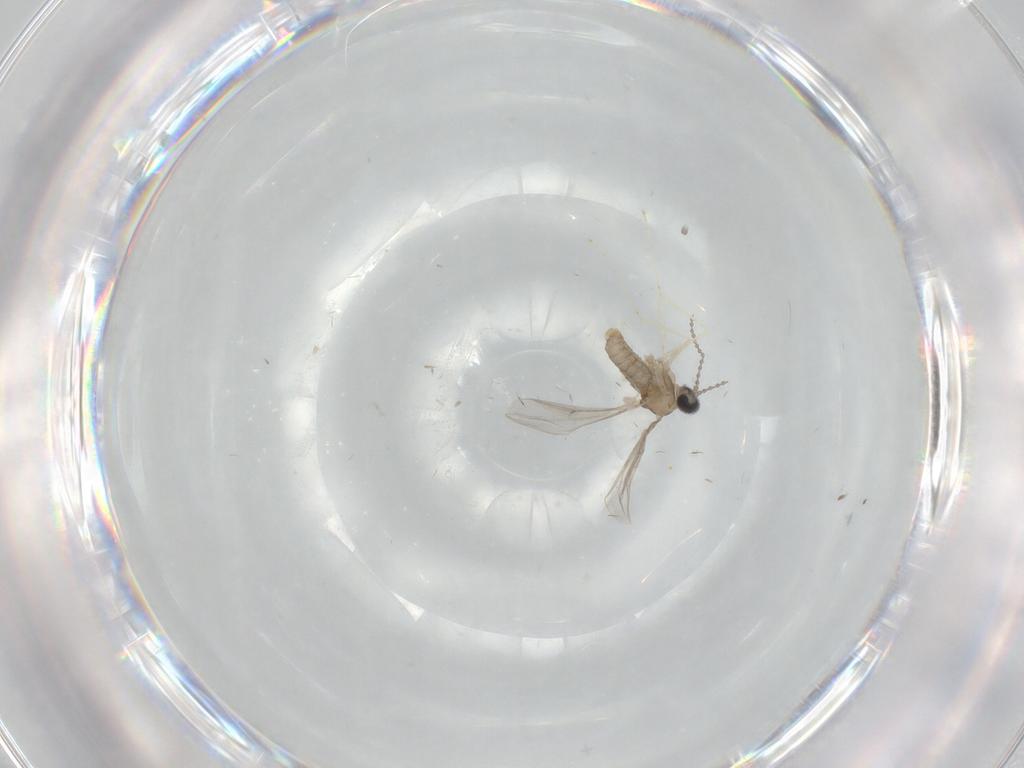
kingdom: Animalia
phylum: Arthropoda
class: Insecta
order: Diptera
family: Cecidomyiidae
